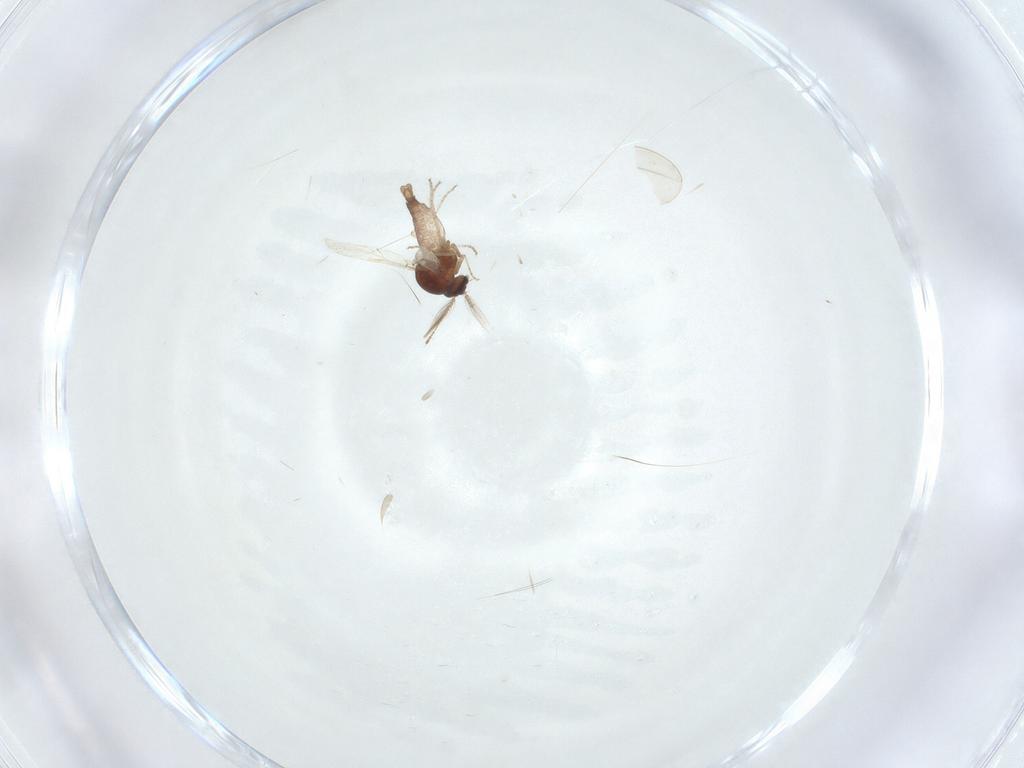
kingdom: Animalia
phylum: Arthropoda
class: Insecta
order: Diptera
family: Ceratopogonidae
